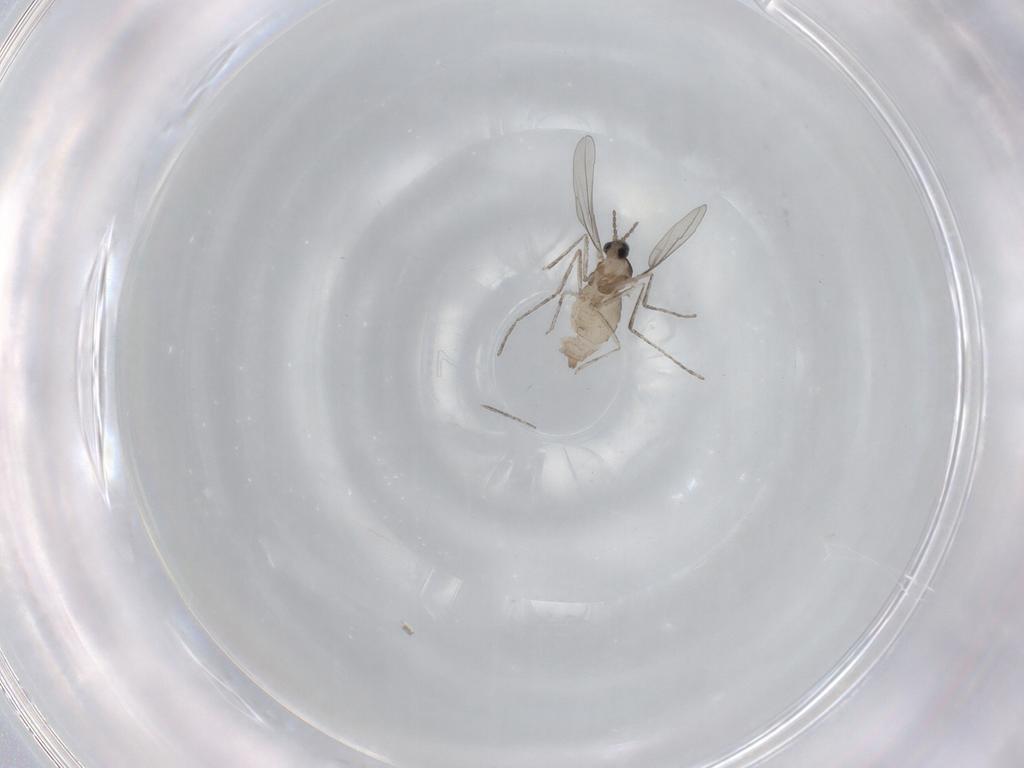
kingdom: Animalia
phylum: Arthropoda
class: Insecta
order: Diptera
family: Cecidomyiidae
